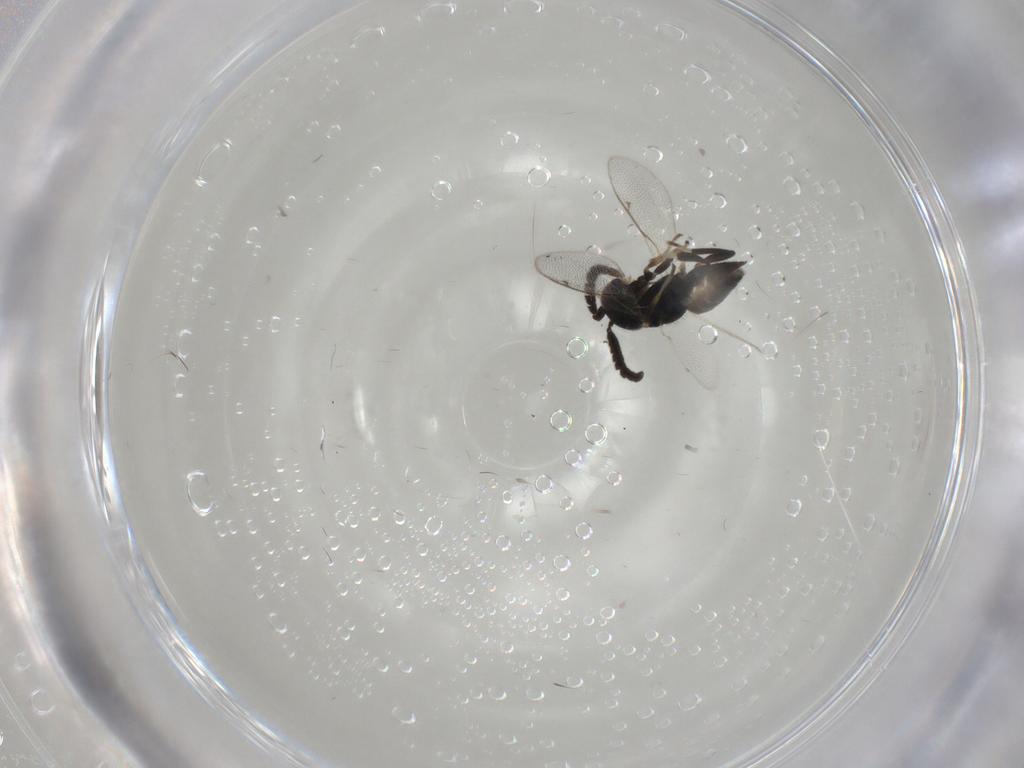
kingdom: Animalia
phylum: Arthropoda
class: Insecta
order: Hymenoptera
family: Eupelmidae
